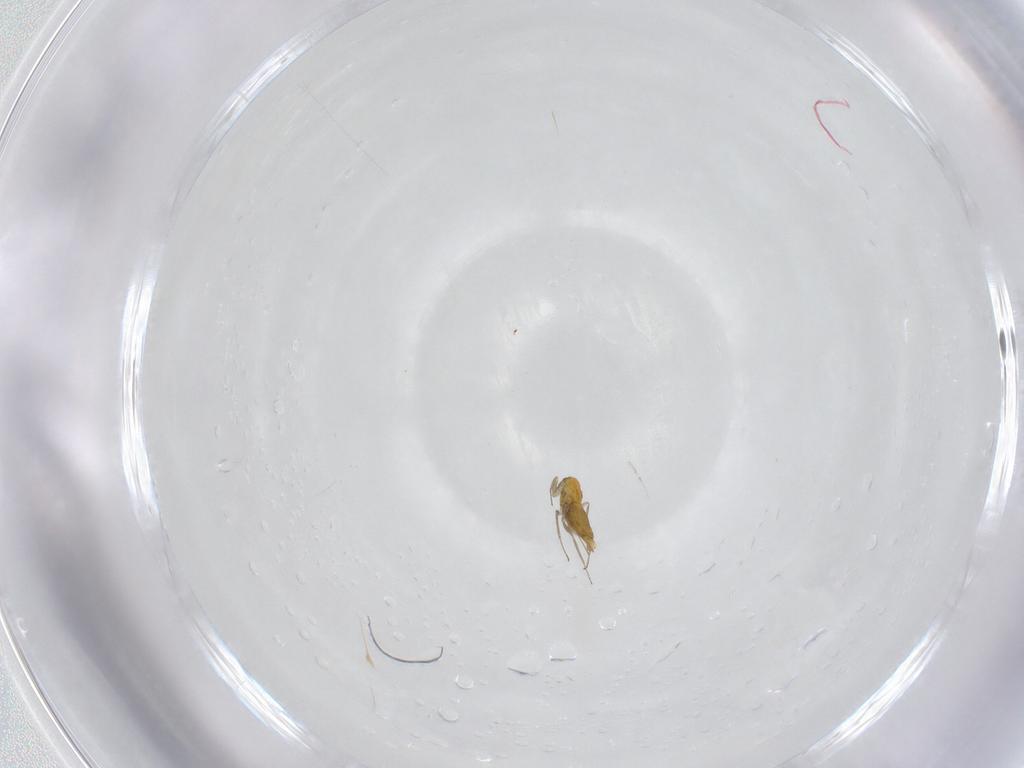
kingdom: Animalia
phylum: Arthropoda
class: Insecta
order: Hymenoptera
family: Aphelinidae
